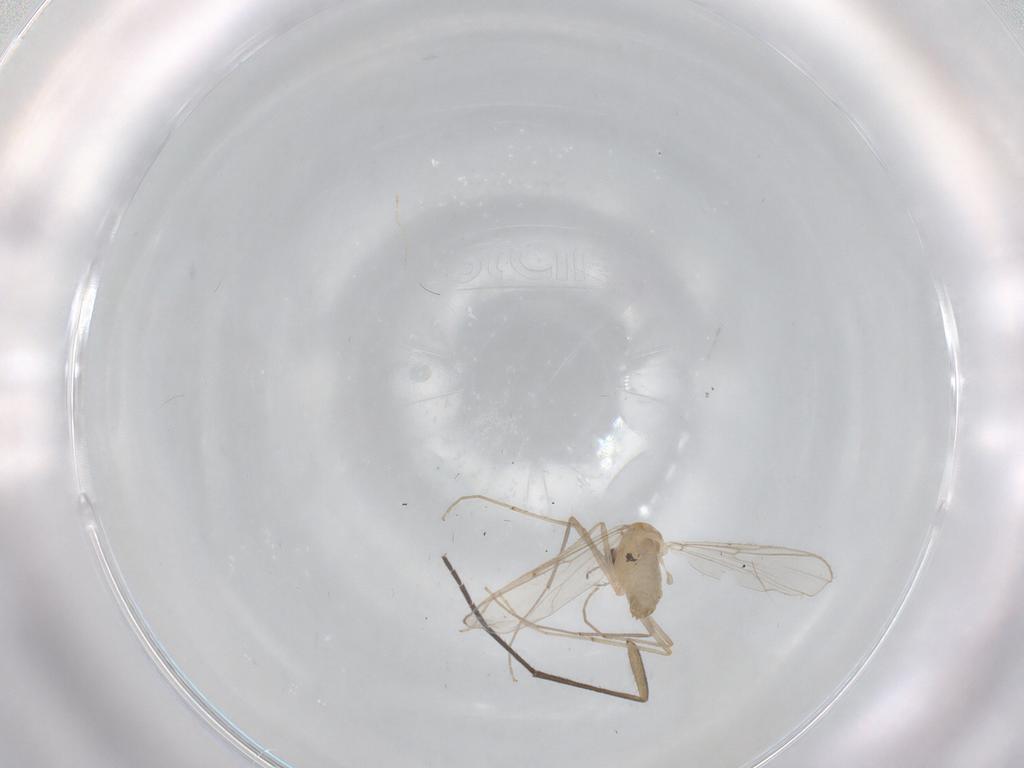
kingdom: Animalia
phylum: Arthropoda
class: Insecta
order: Diptera
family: Chironomidae
